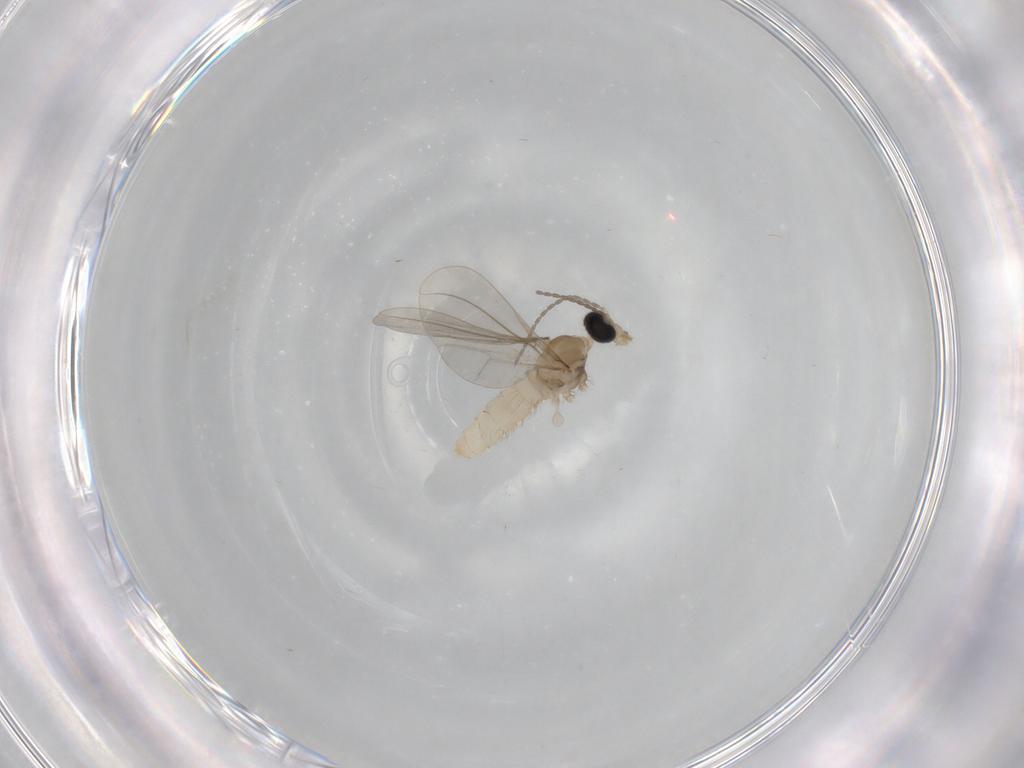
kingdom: Animalia
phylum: Arthropoda
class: Insecta
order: Diptera
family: Cecidomyiidae
